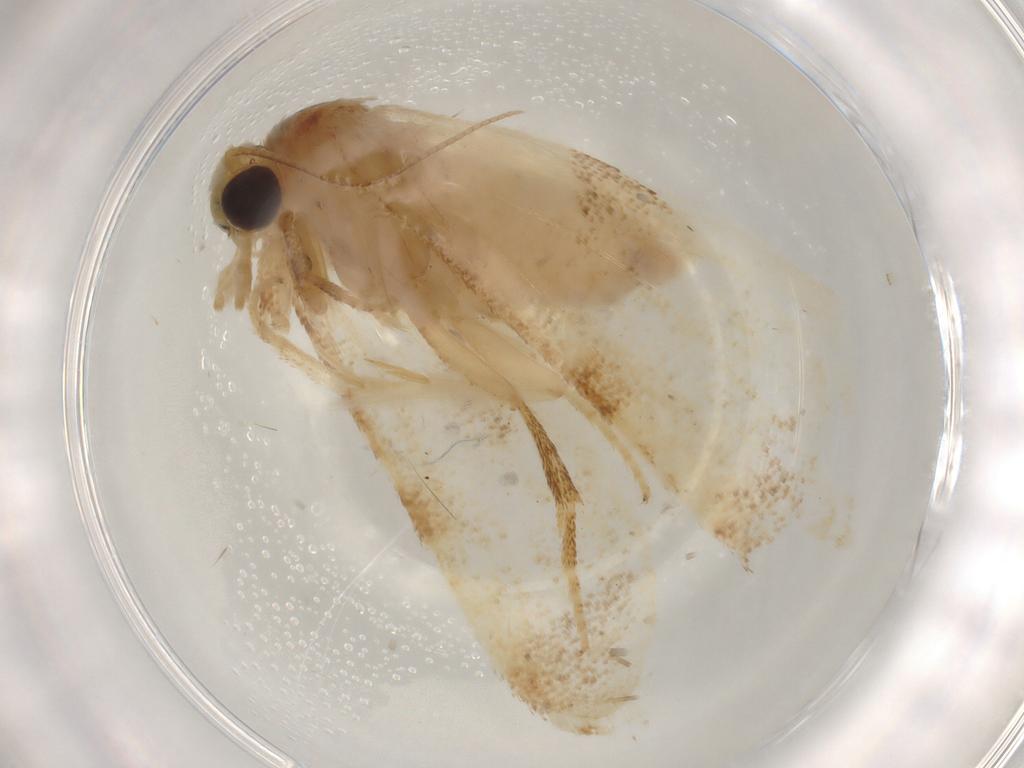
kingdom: Animalia
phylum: Arthropoda
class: Insecta
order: Lepidoptera
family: Tortricidae
